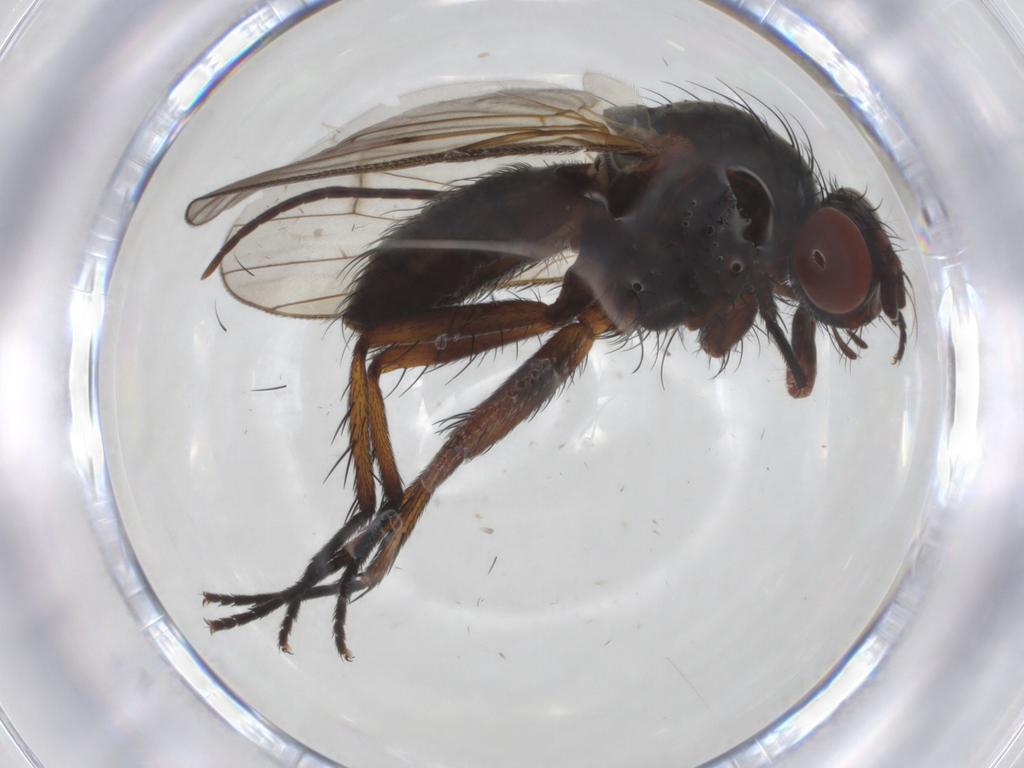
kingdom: Animalia
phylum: Arthropoda
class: Insecta
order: Diptera
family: Anthomyiidae
